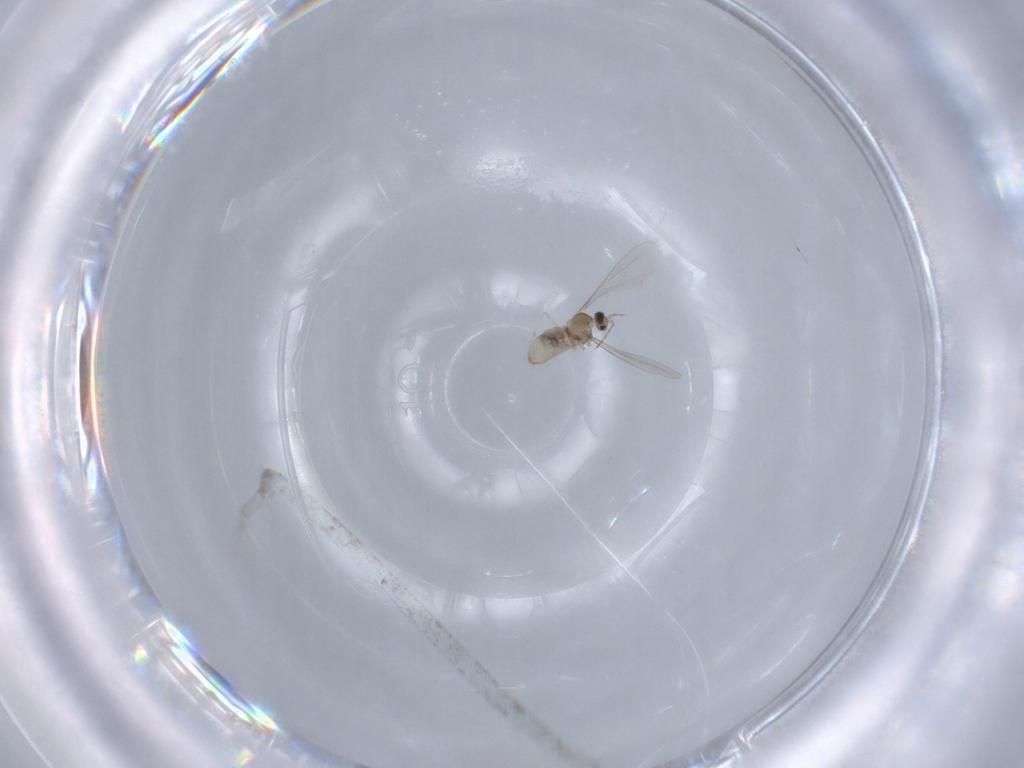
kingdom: Animalia
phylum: Arthropoda
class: Insecta
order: Diptera
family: Cecidomyiidae
